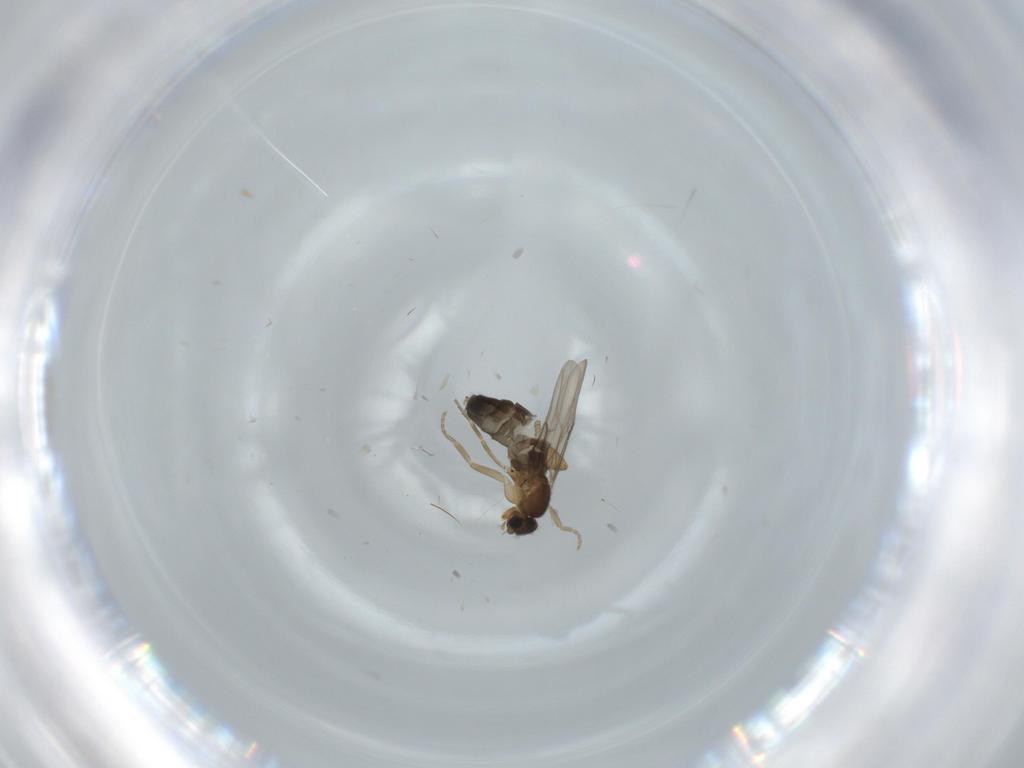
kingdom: Animalia
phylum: Arthropoda
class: Insecta
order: Diptera
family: Phoridae
